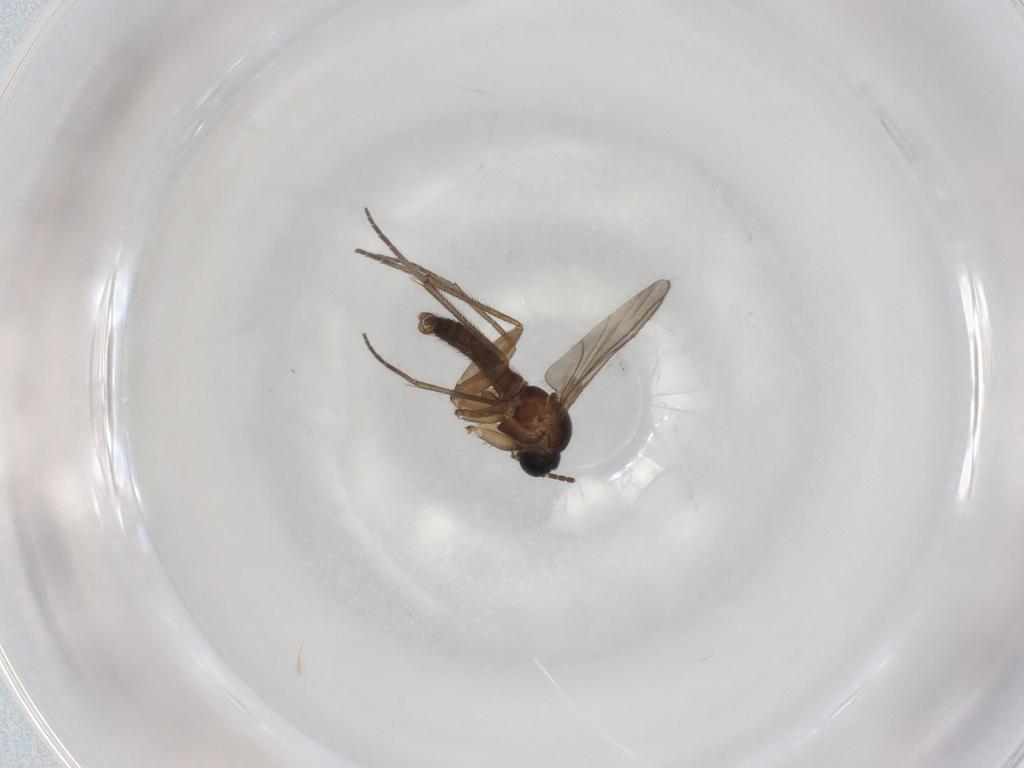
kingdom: Animalia
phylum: Arthropoda
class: Insecta
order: Diptera
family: Sciaridae
